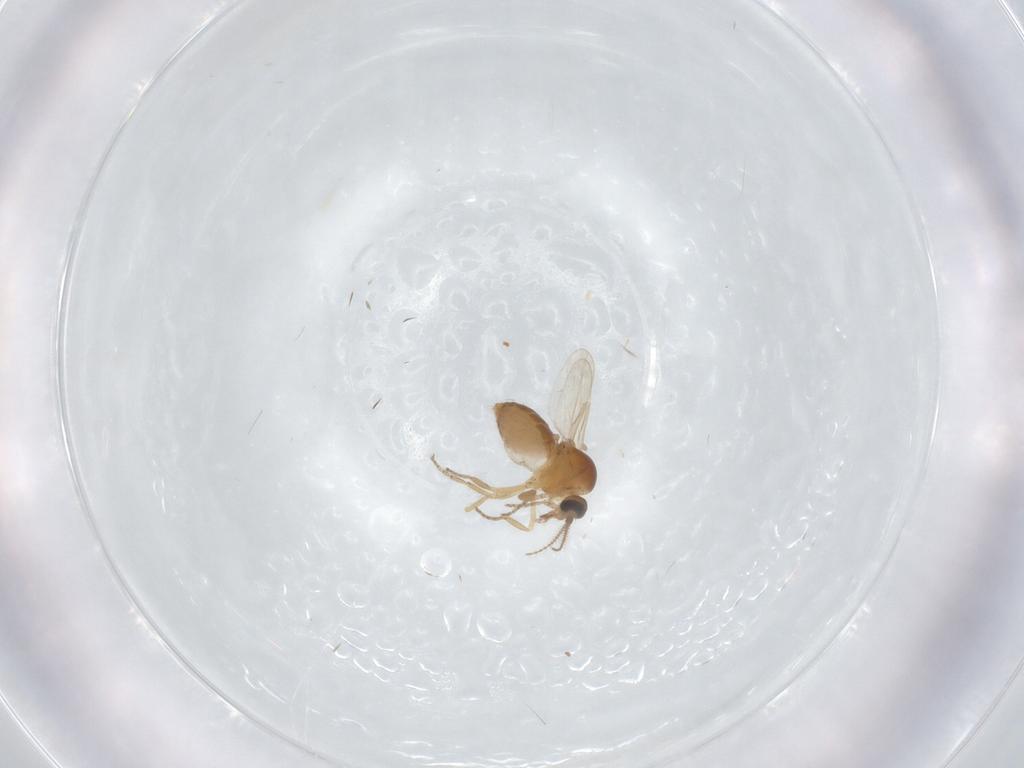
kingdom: Animalia
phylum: Arthropoda
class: Insecta
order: Diptera
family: Ceratopogonidae
